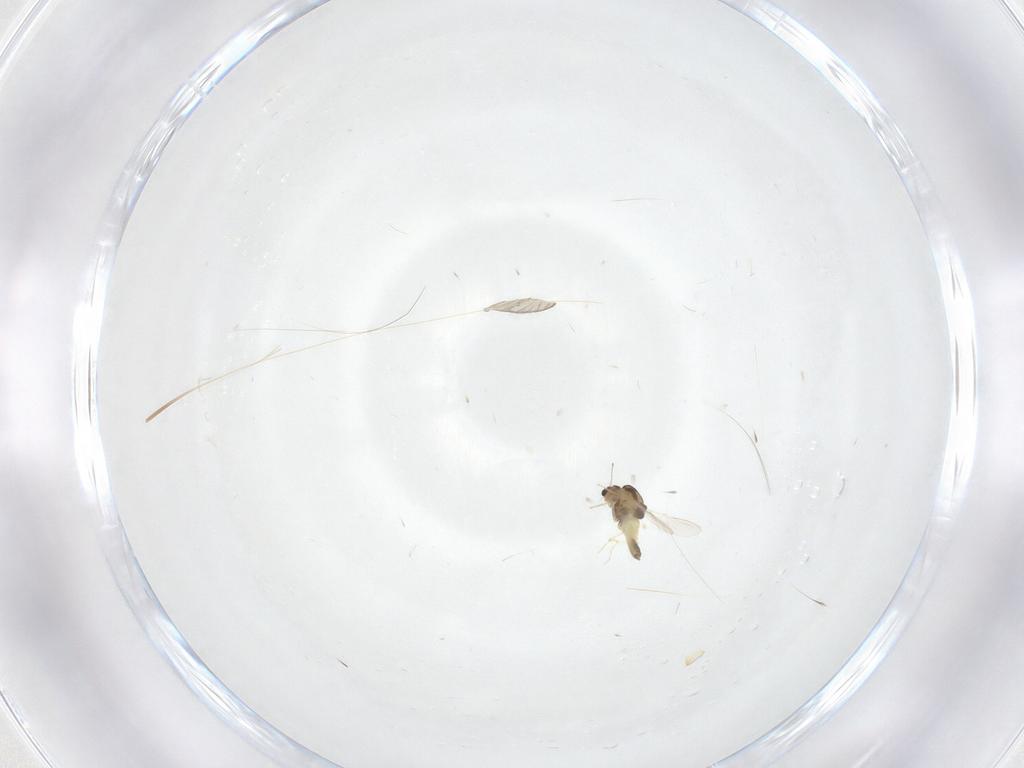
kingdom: Animalia
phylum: Arthropoda
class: Insecta
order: Diptera
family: Chironomidae
